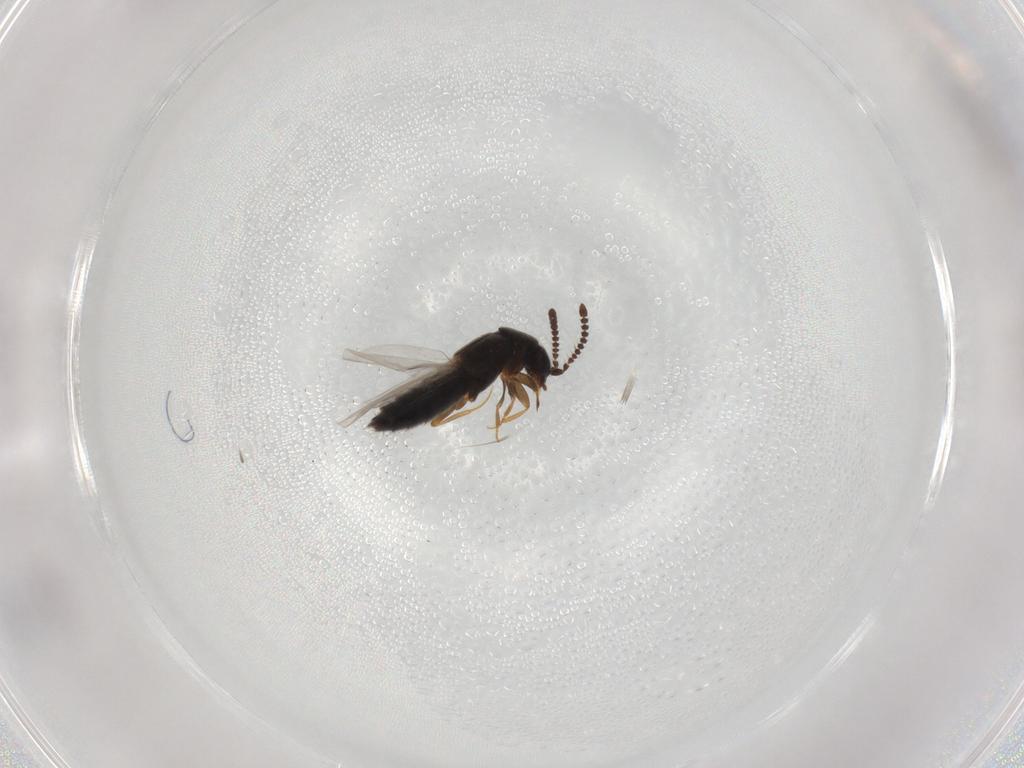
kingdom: Animalia
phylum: Arthropoda
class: Insecta
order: Coleoptera
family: Staphylinidae
